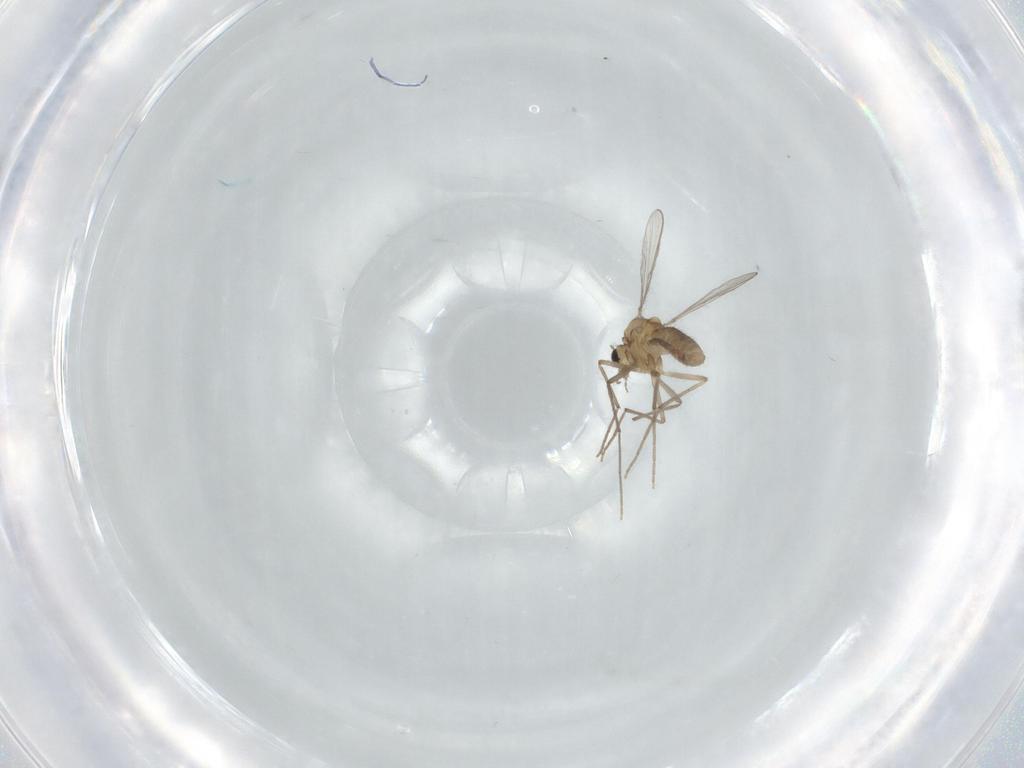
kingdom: Animalia
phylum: Arthropoda
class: Insecta
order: Diptera
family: Chironomidae
